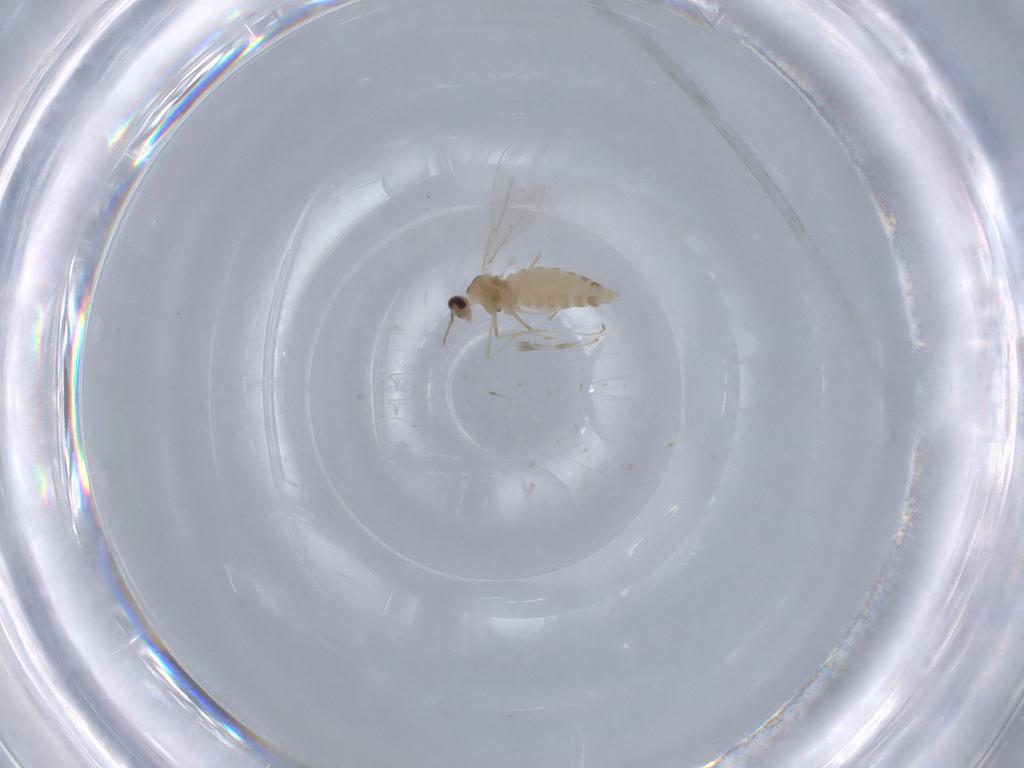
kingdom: Animalia
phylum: Arthropoda
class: Insecta
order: Diptera
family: Cecidomyiidae
